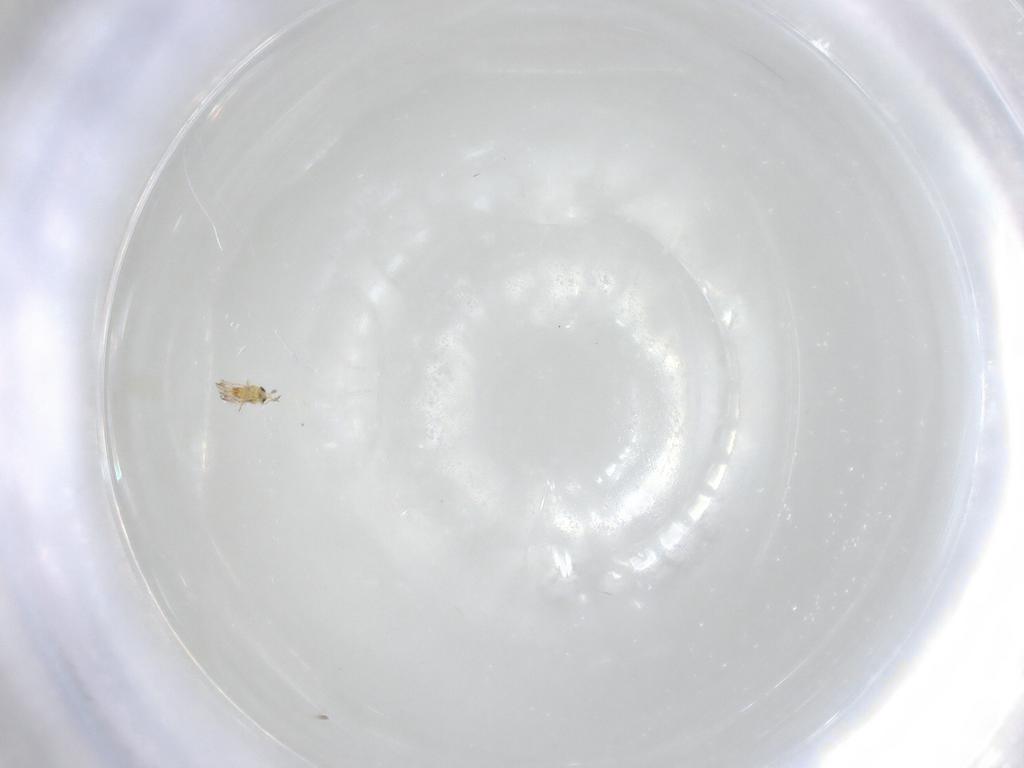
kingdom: Animalia
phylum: Arthropoda
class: Insecta
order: Hymenoptera
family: Trichogrammatidae
